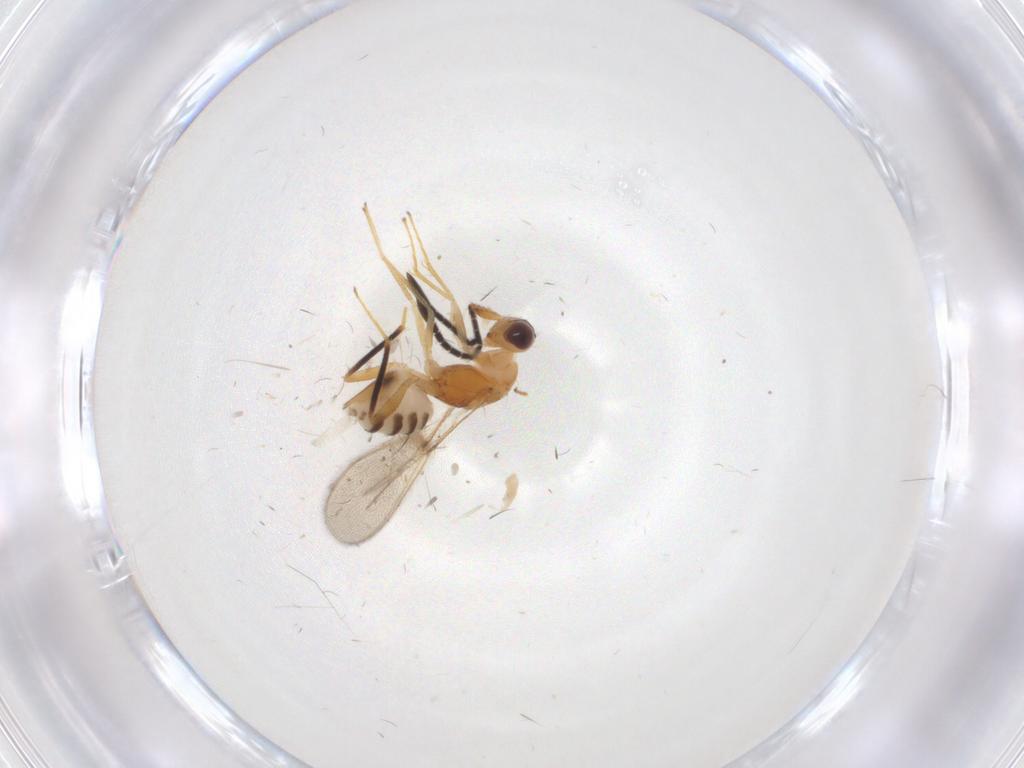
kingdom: Animalia
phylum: Arthropoda
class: Insecta
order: Hymenoptera
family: Mymaridae
